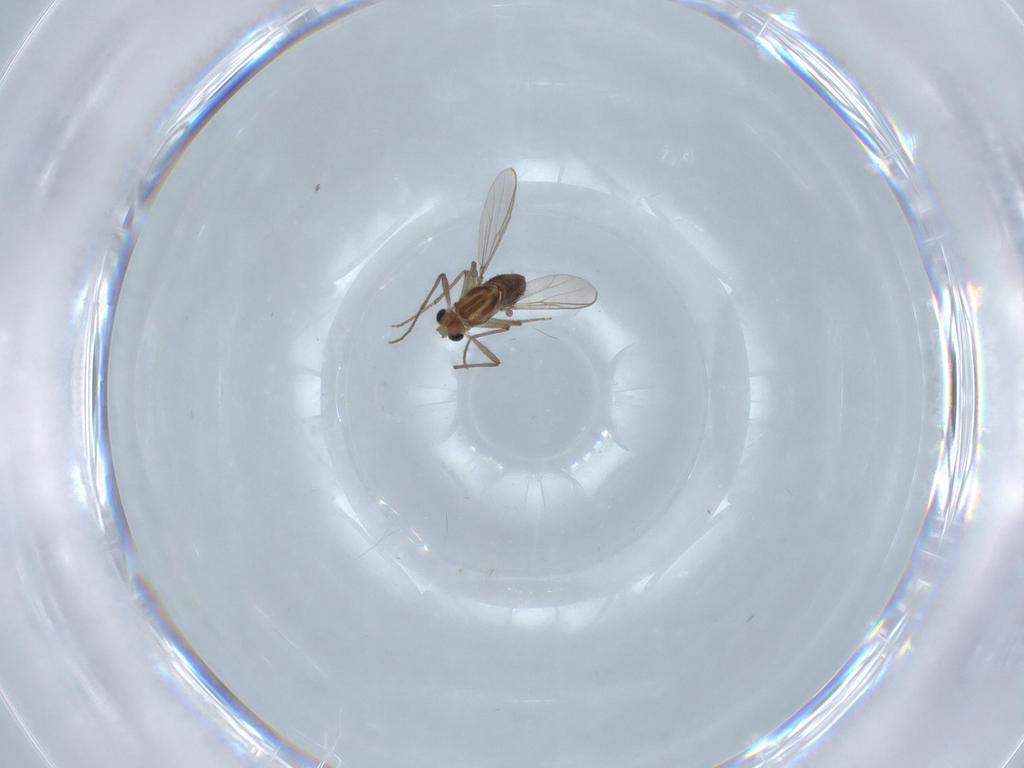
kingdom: Animalia
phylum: Arthropoda
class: Insecta
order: Diptera
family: Chironomidae
